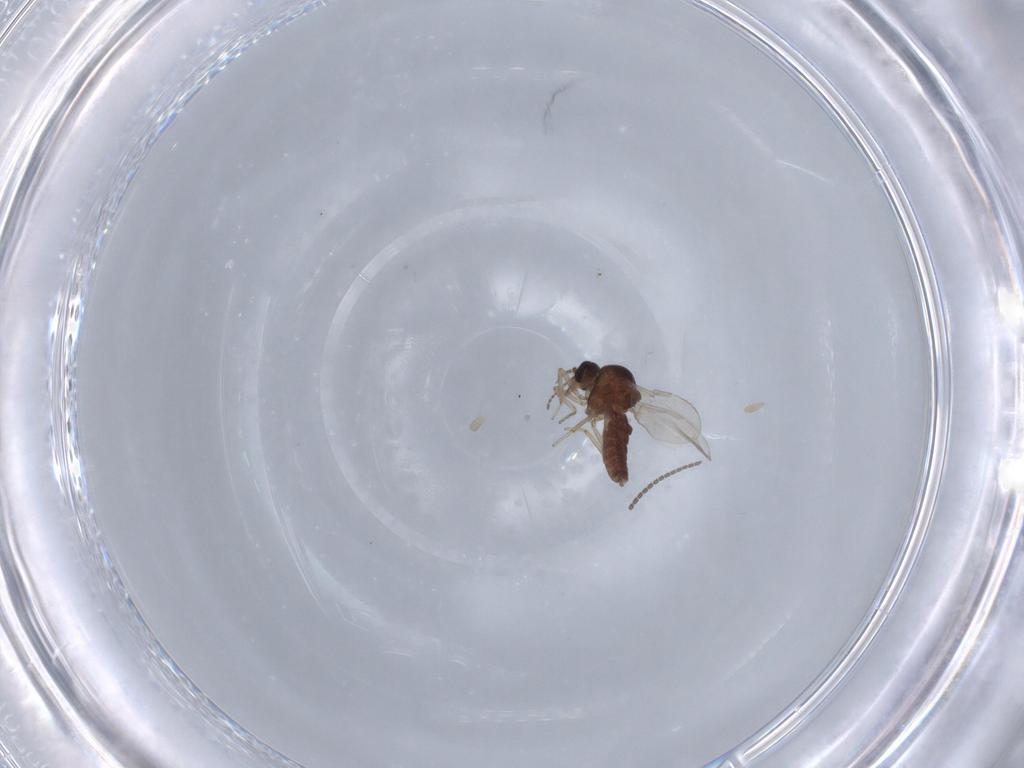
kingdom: Animalia
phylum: Arthropoda
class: Insecta
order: Diptera
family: Ceratopogonidae
